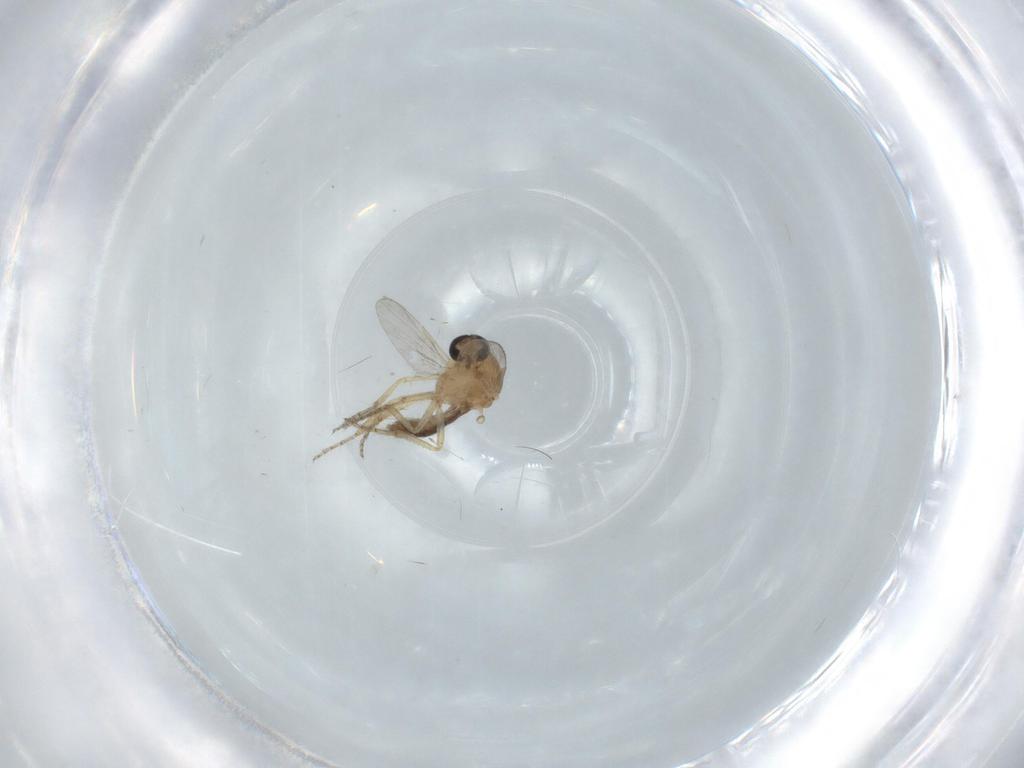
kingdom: Animalia
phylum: Arthropoda
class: Insecta
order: Diptera
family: Ceratopogonidae
